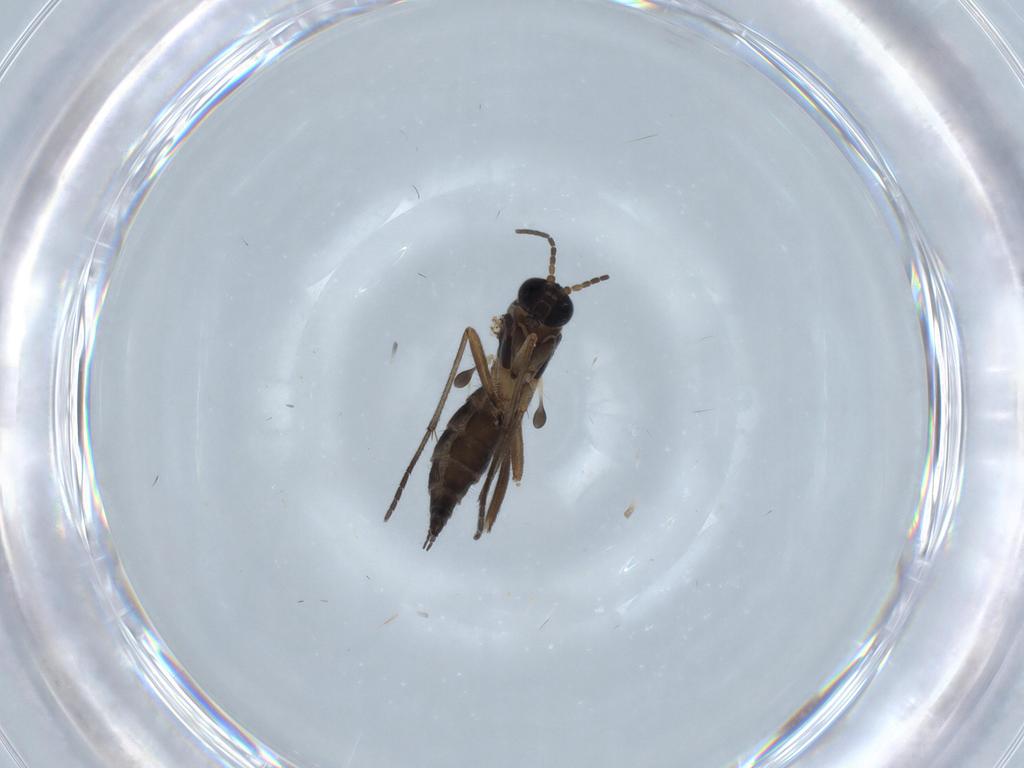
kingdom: Animalia
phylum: Arthropoda
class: Insecta
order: Diptera
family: Sciaridae
